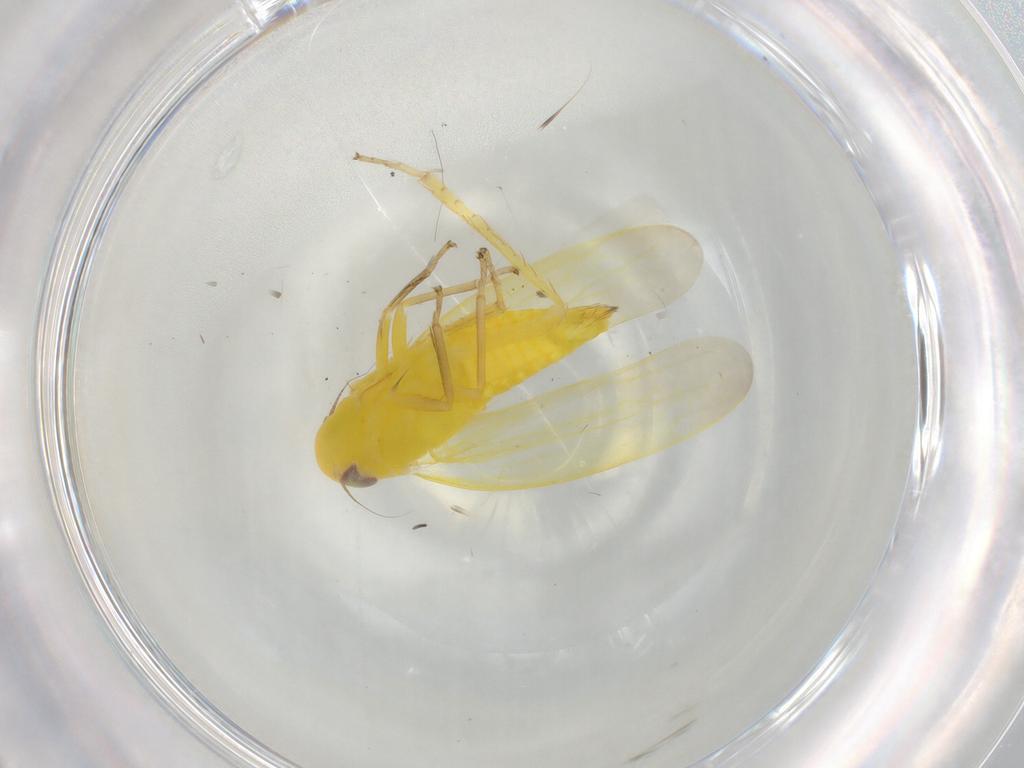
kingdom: Animalia
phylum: Arthropoda
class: Insecta
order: Hemiptera
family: Cicadellidae
